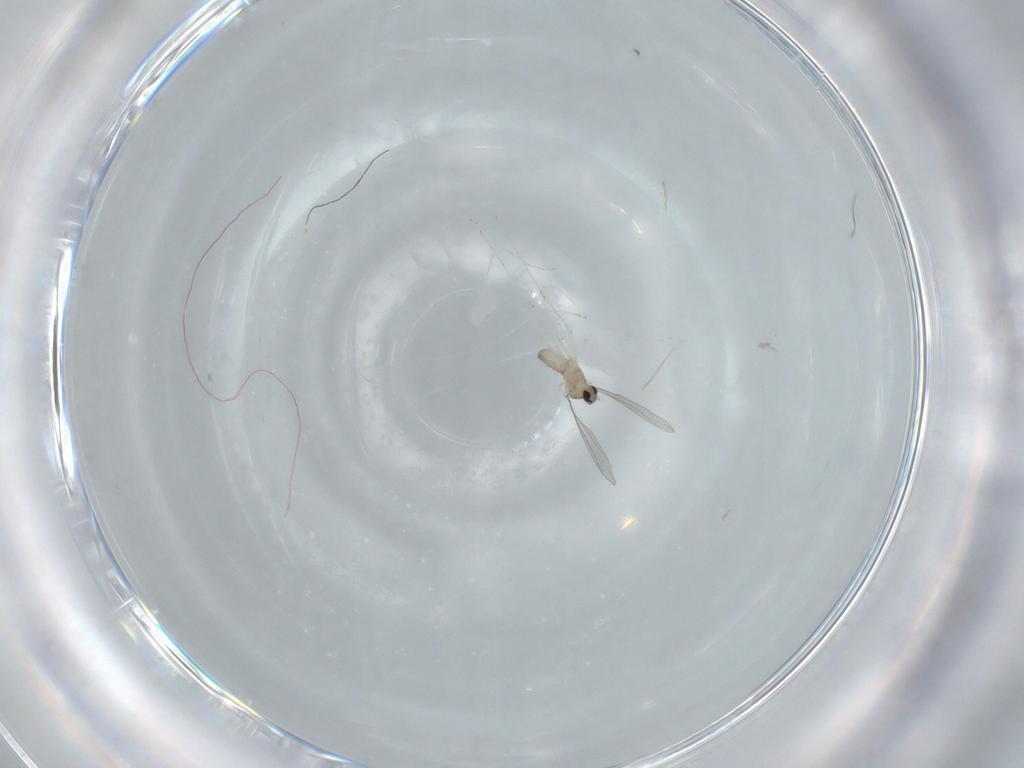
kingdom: Animalia
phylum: Arthropoda
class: Insecta
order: Diptera
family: Cecidomyiidae
